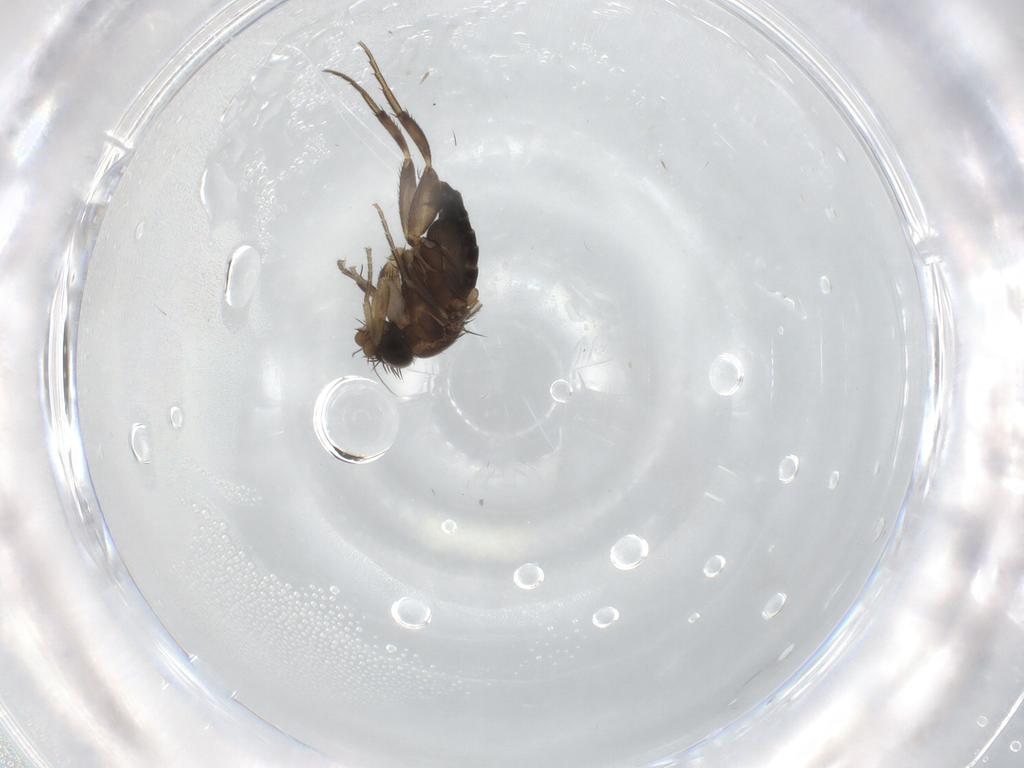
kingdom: Animalia
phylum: Arthropoda
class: Insecta
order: Diptera
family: Phoridae
